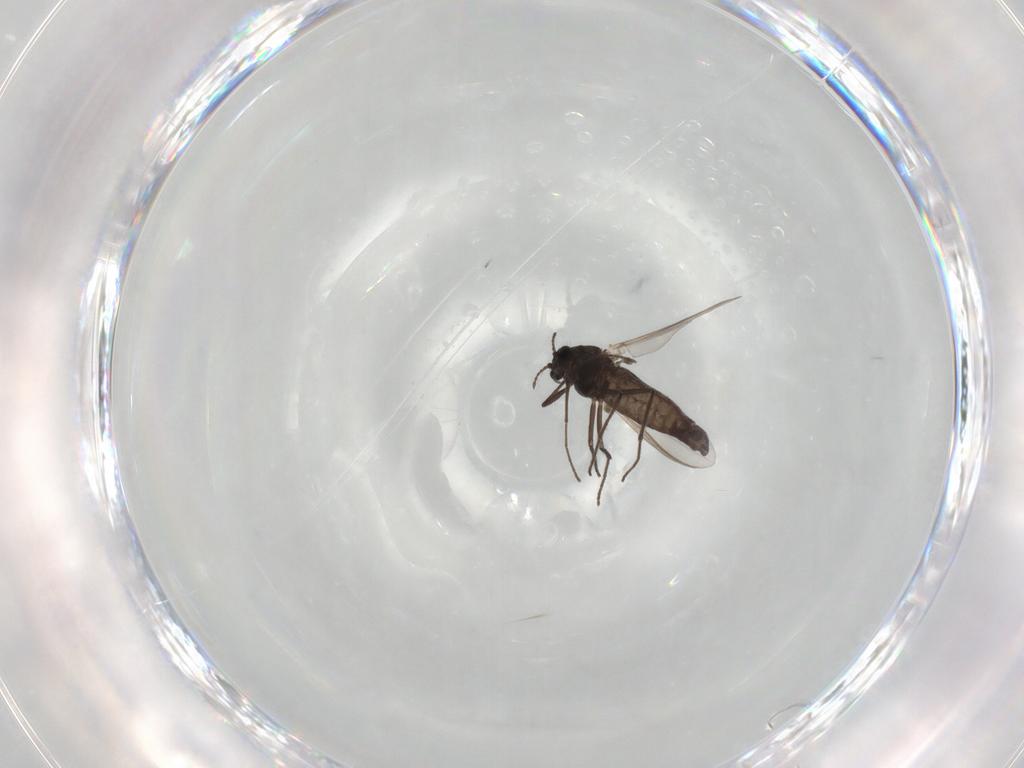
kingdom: Animalia
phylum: Arthropoda
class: Insecta
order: Diptera
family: Chironomidae
